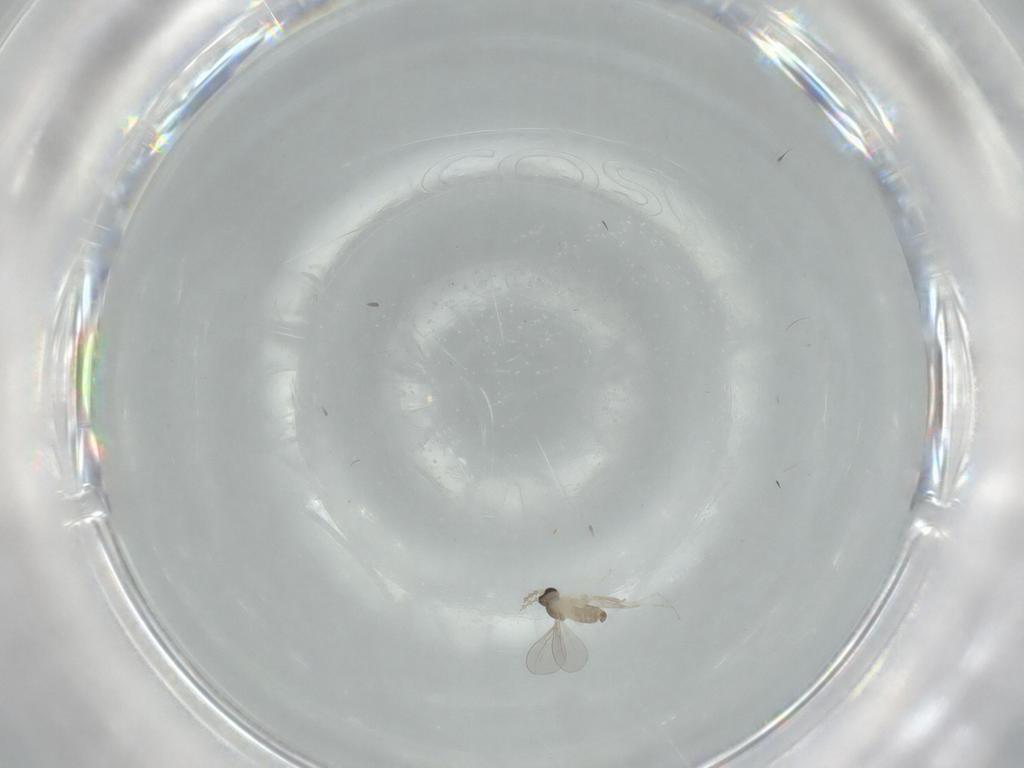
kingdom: Animalia
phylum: Arthropoda
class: Insecta
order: Diptera
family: Cecidomyiidae
